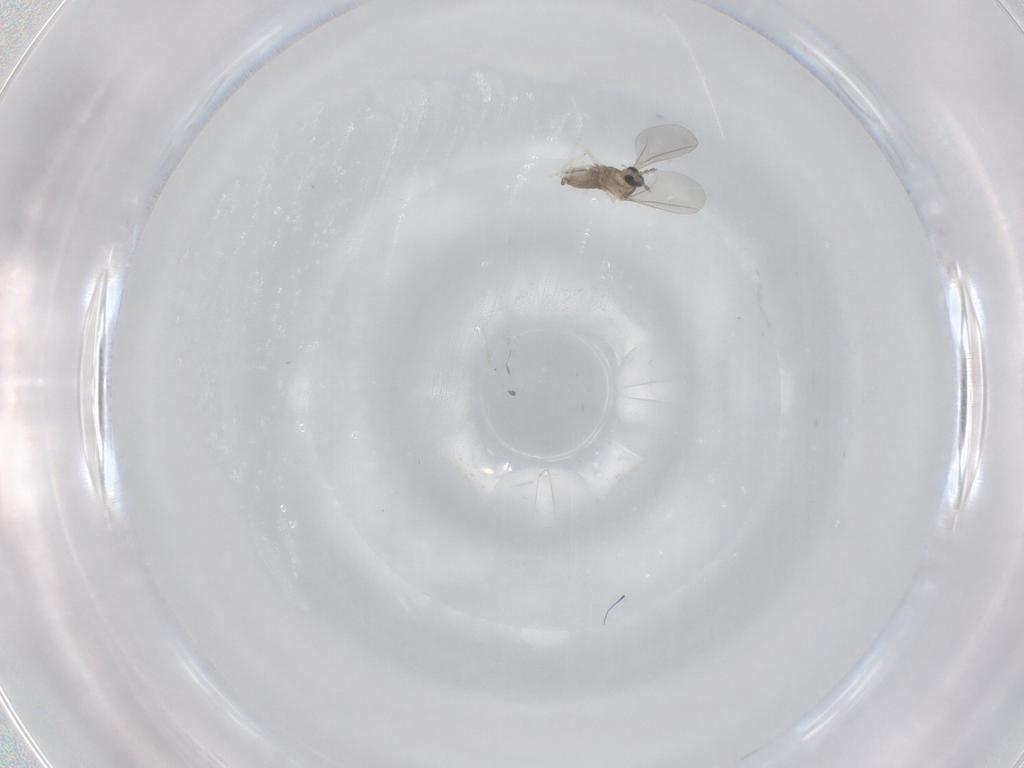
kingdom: Animalia
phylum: Arthropoda
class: Insecta
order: Diptera
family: Cecidomyiidae
